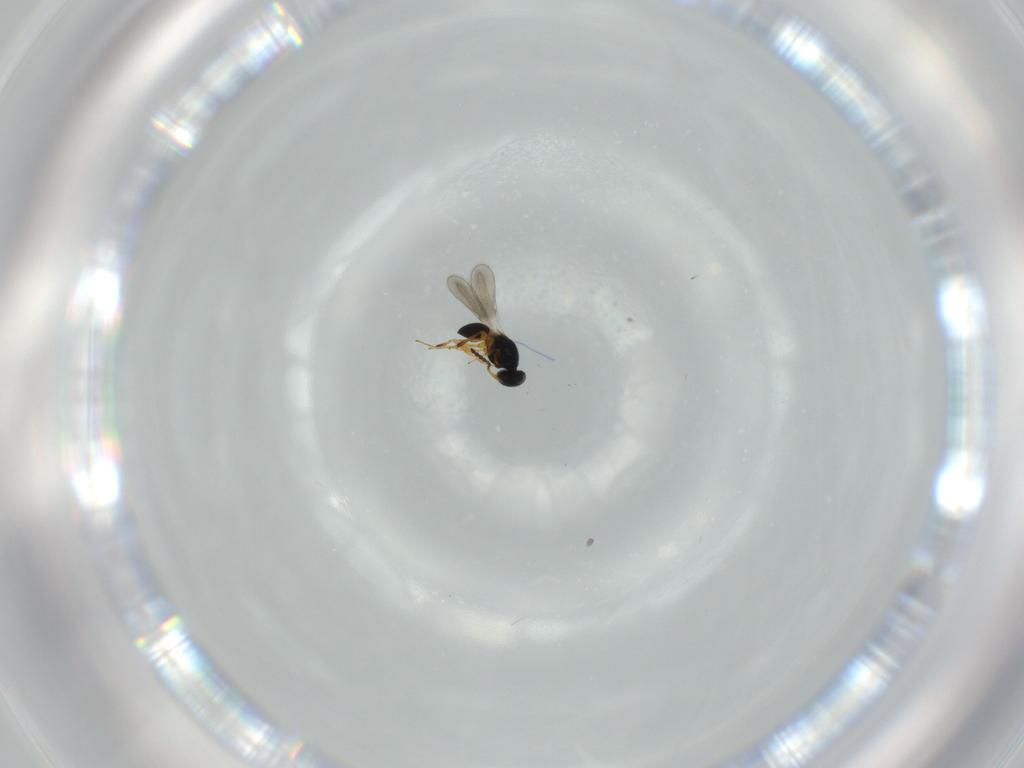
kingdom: Animalia
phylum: Arthropoda
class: Insecta
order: Hymenoptera
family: Platygastridae
